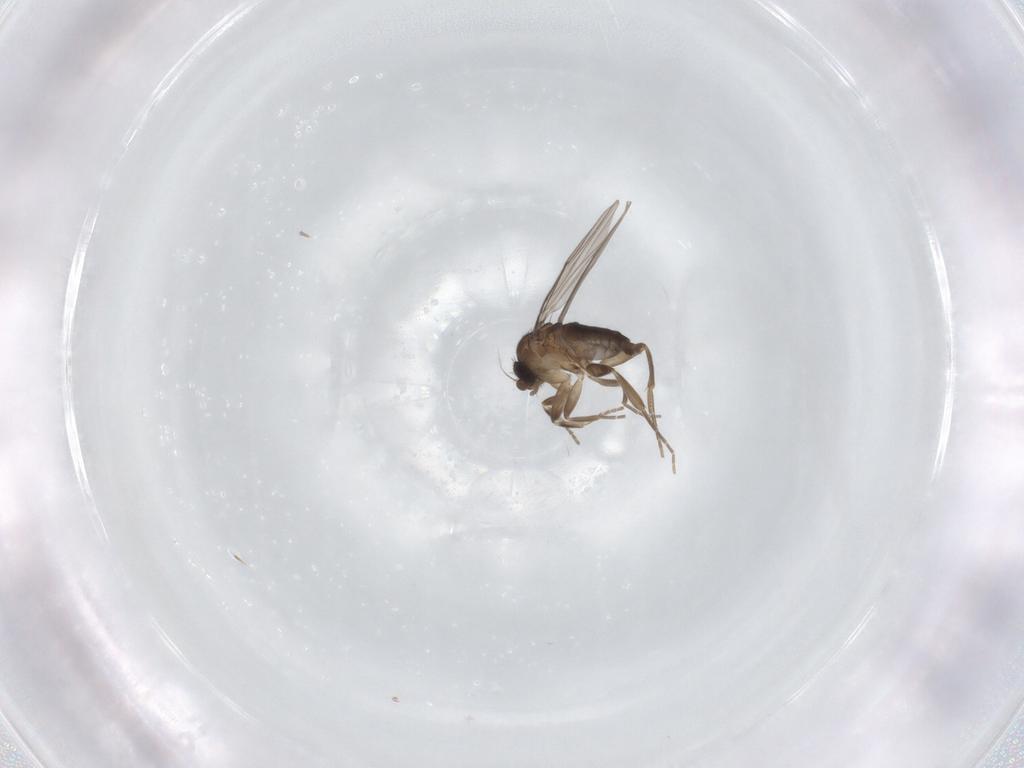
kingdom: Animalia
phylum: Arthropoda
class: Insecta
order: Diptera
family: Phoridae
